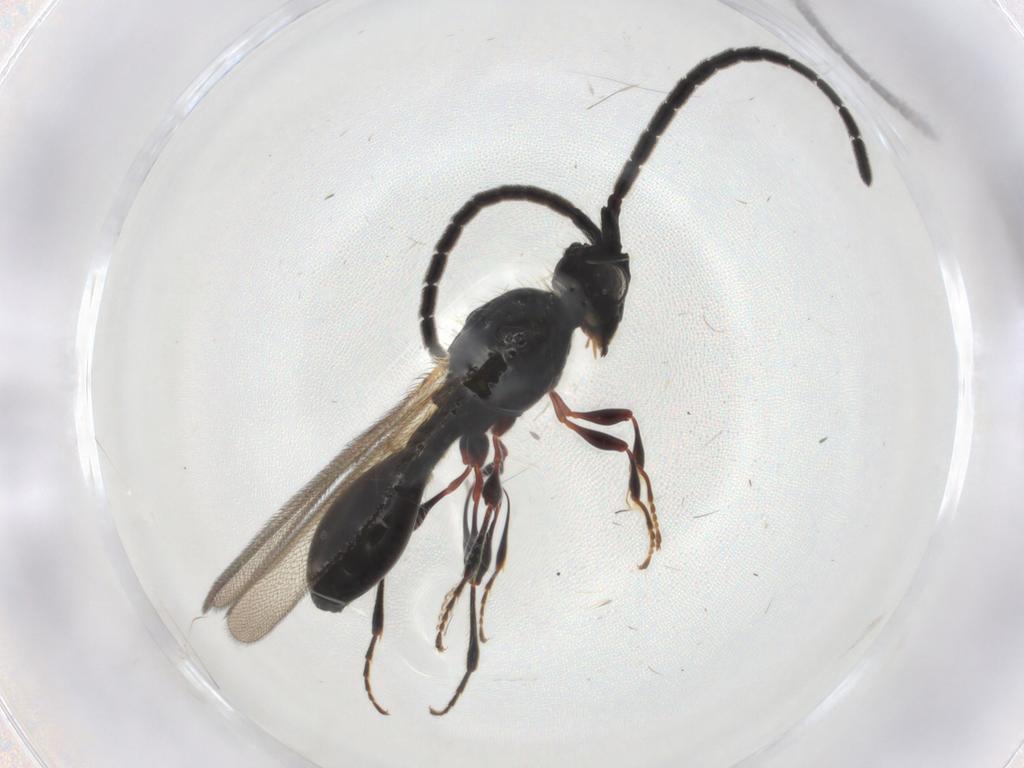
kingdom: Animalia
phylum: Arthropoda
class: Insecta
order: Hymenoptera
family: Diapriidae
